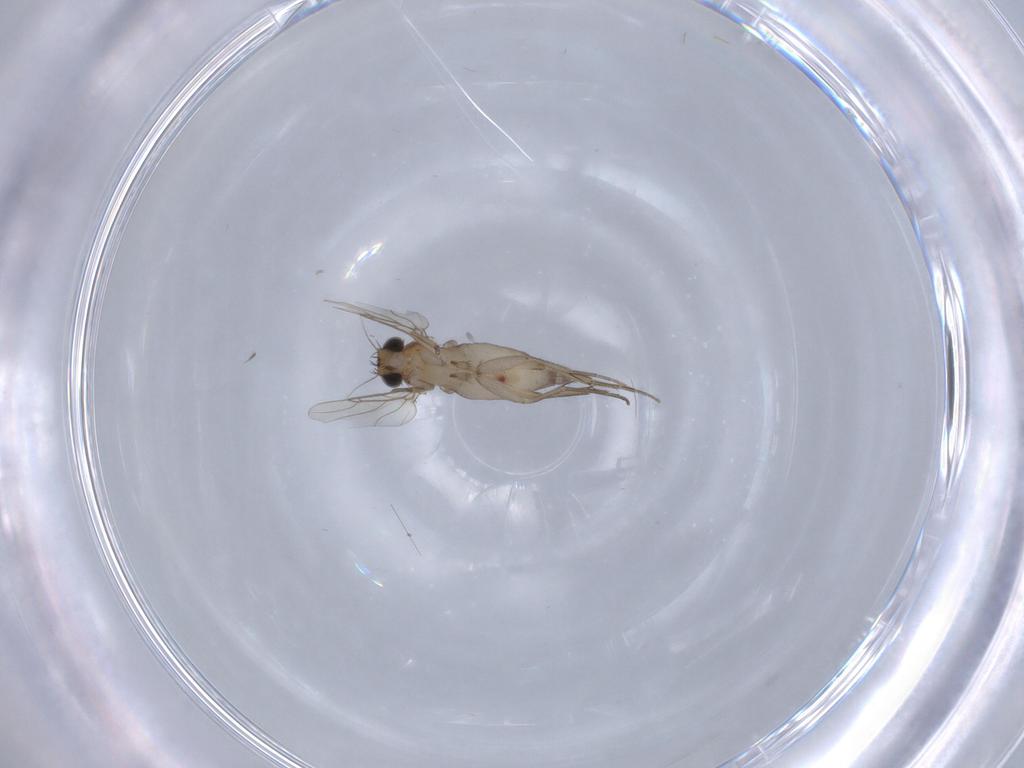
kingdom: Animalia
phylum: Arthropoda
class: Insecta
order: Diptera
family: Phoridae
